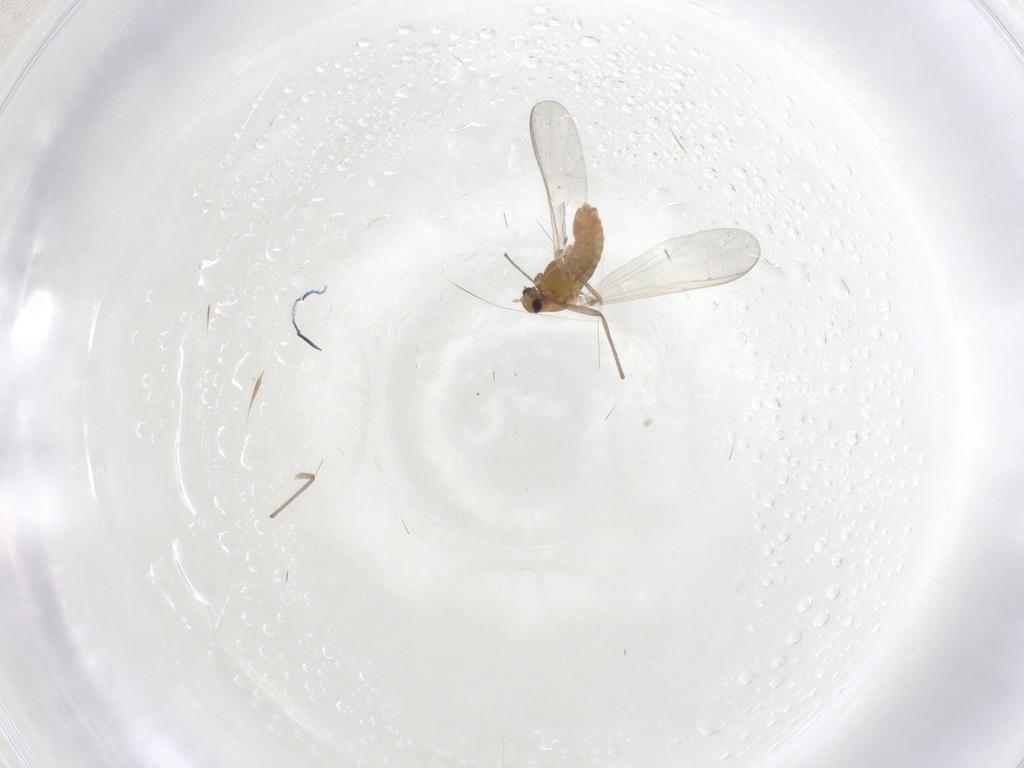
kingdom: Animalia
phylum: Arthropoda
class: Insecta
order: Diptera
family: Chironomidae
